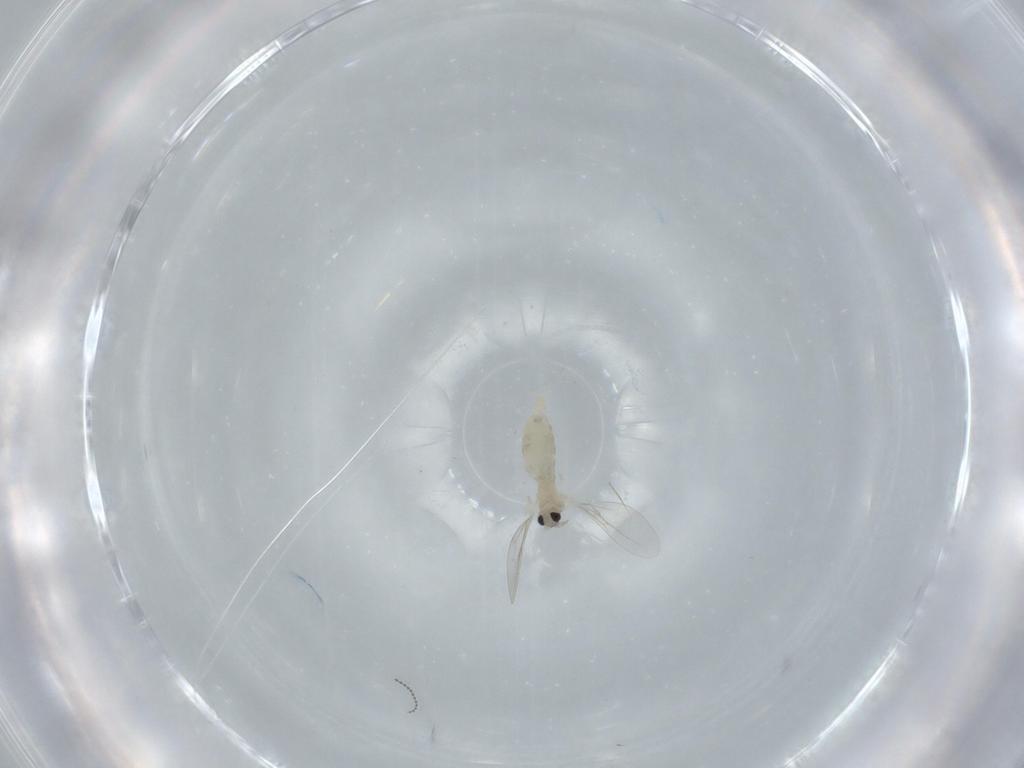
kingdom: Animalia
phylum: Arthropoda
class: Insecta
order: Diptera
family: Cecidomyiidae
